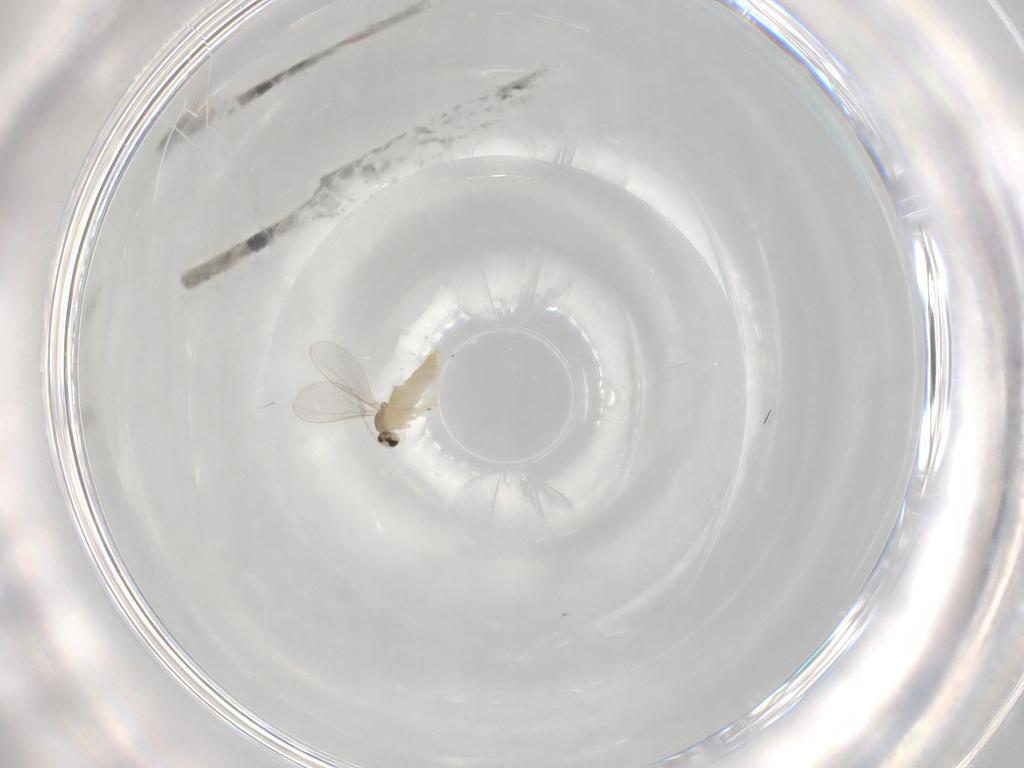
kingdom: Animalia
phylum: Arthropoda
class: Insecta
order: Diptera
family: Cecidomyiidae
